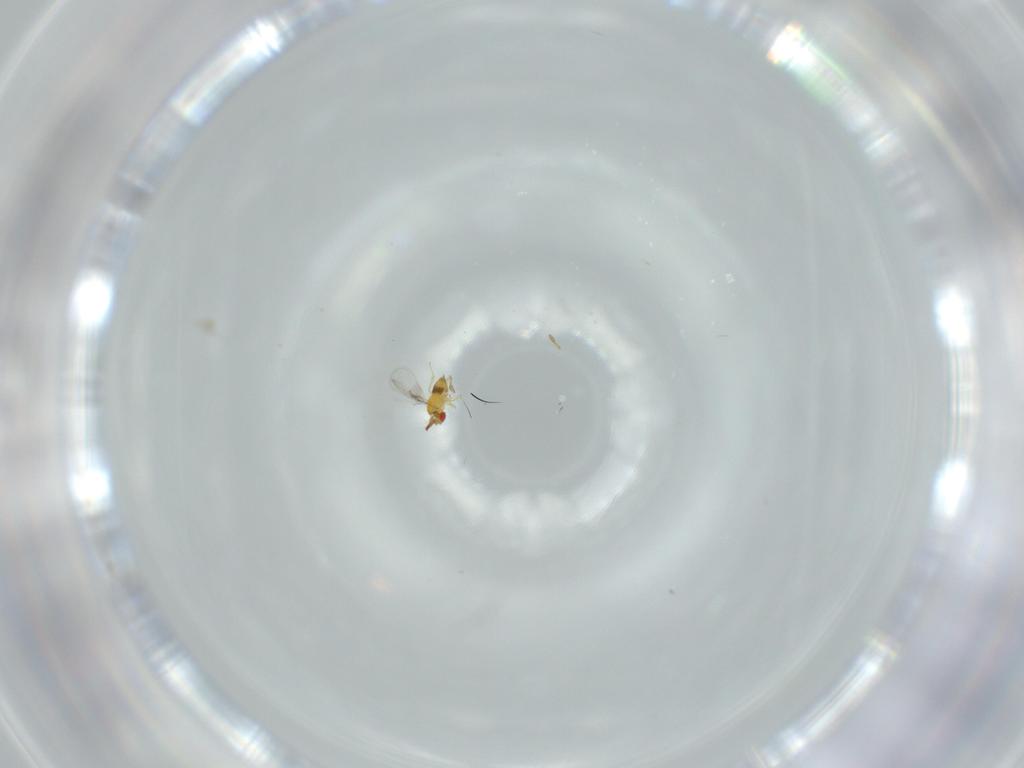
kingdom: Animalia
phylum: Arthropoda
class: Insecta
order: Hymenoptera
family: Trichogrammatidae
